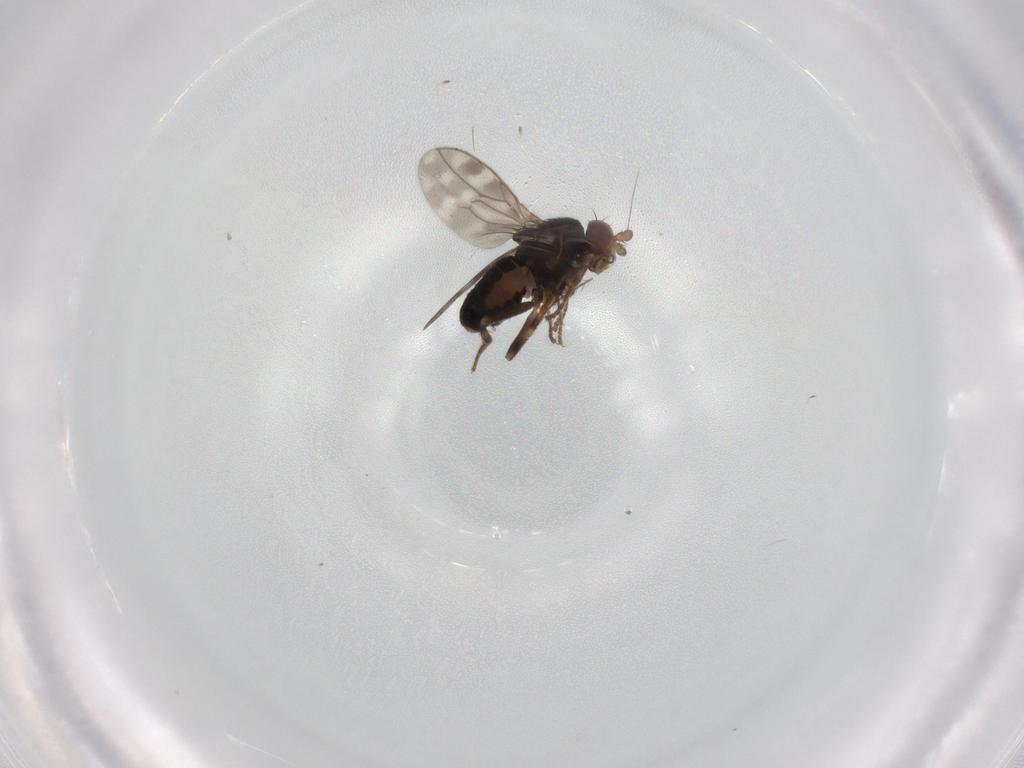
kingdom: Animalia
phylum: Arthropoda
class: Insecta
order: Diptera
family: Sphaeroceridae
